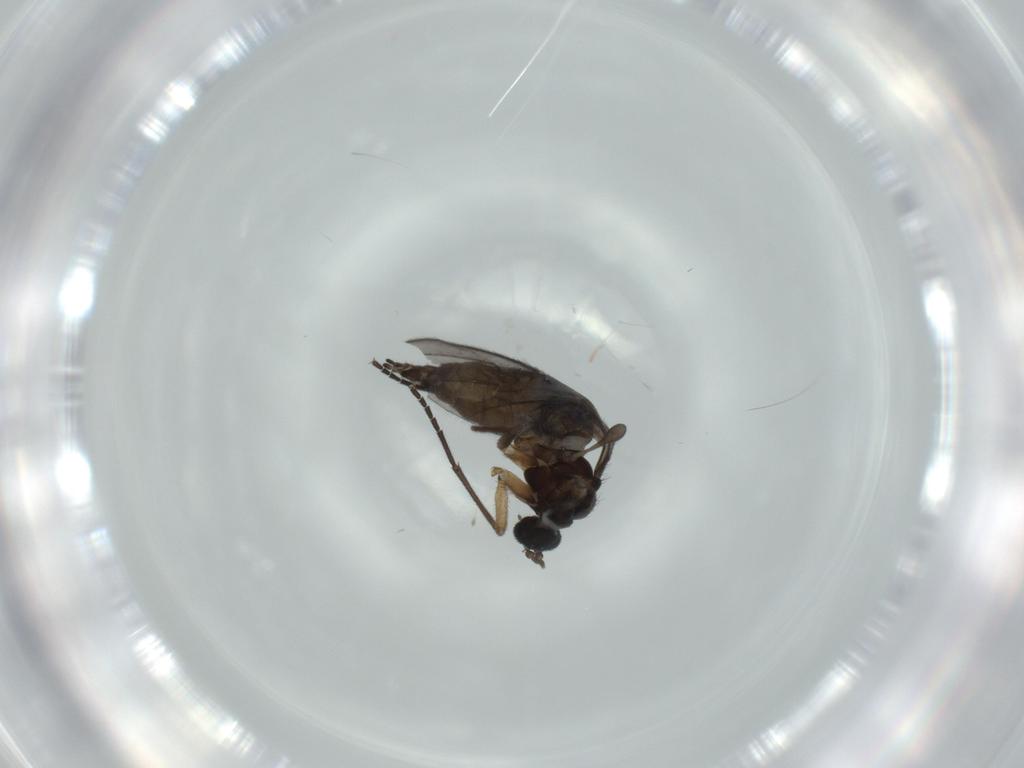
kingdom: Animalia
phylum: Arthropoda
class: Insecta
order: Diptera
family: Sciaridae
